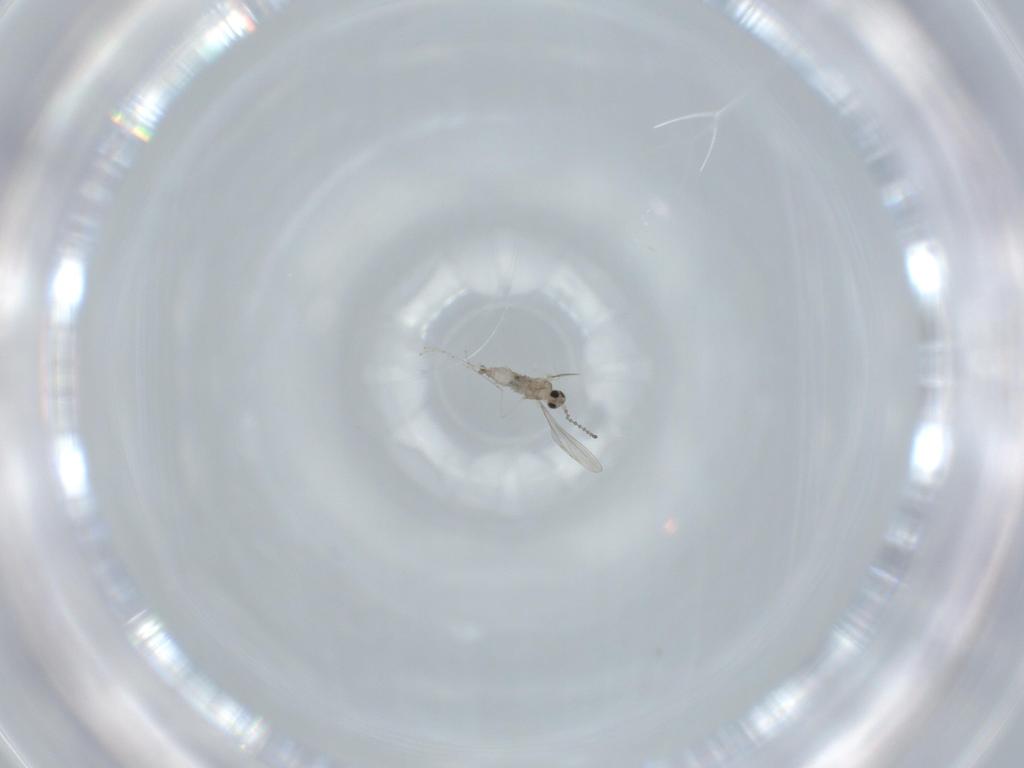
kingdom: Animalia
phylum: Arthropoda
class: Insecta
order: Diptera
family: Cecidomyiidae
